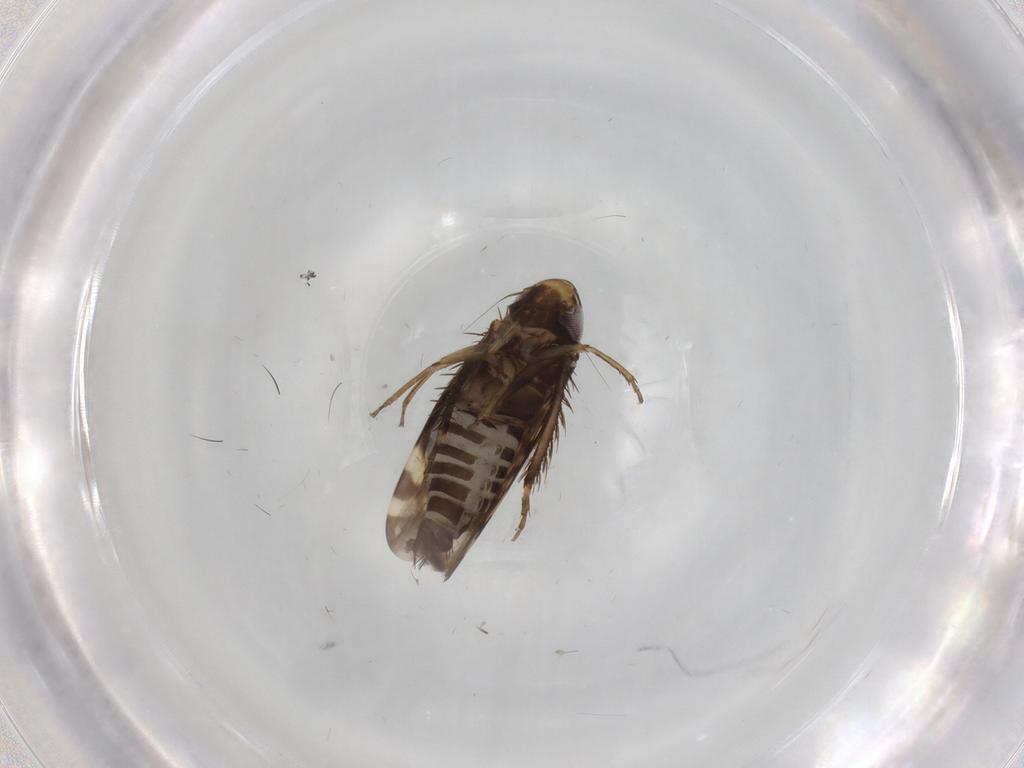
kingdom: Animalia
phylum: Arthropoda
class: Insecta
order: Hemiptera
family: Cicadellidae
